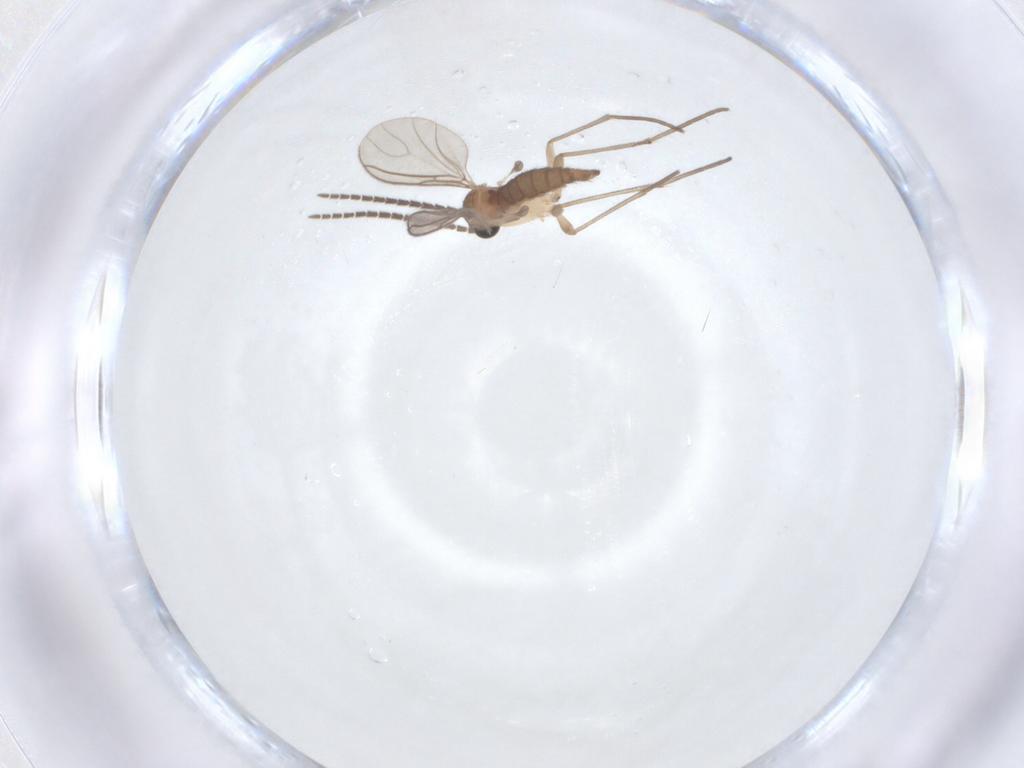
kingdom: Animalia
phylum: Arthropoda
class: Insecta
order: Diptera
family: Sciaridae
